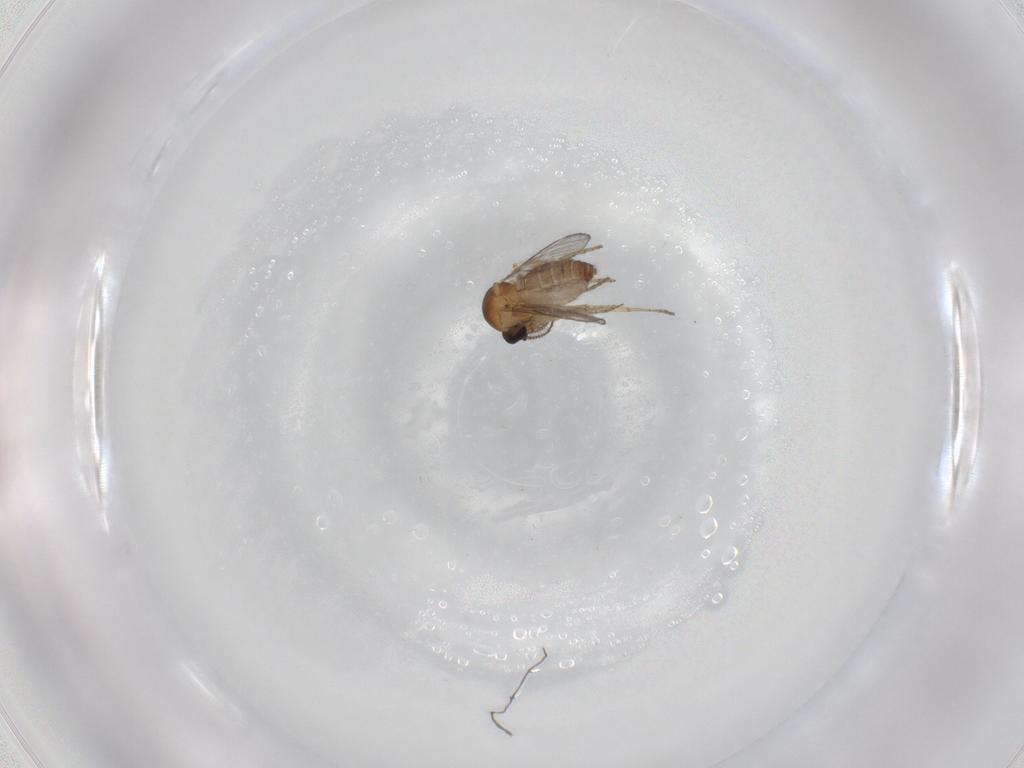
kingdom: Animalia
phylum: Arthropoda
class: Insecta
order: Diptera
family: Ceratopogonidae
